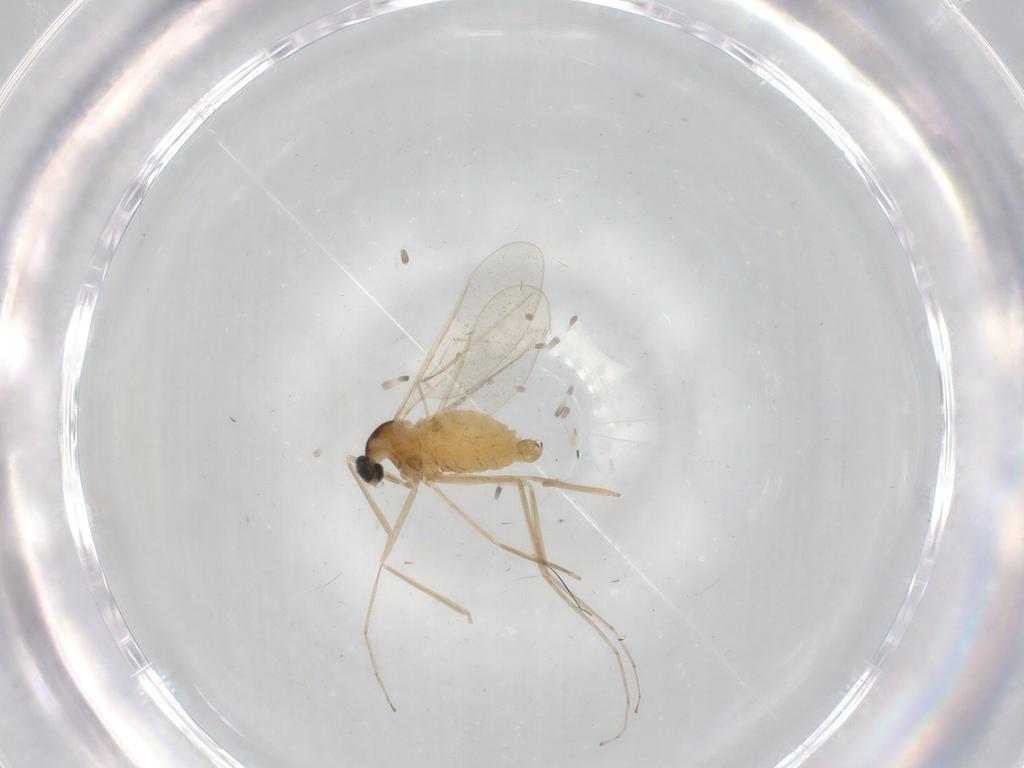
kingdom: Animalia
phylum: Arthropoda
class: Insecta
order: Diptera
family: Cecidomyiidae
